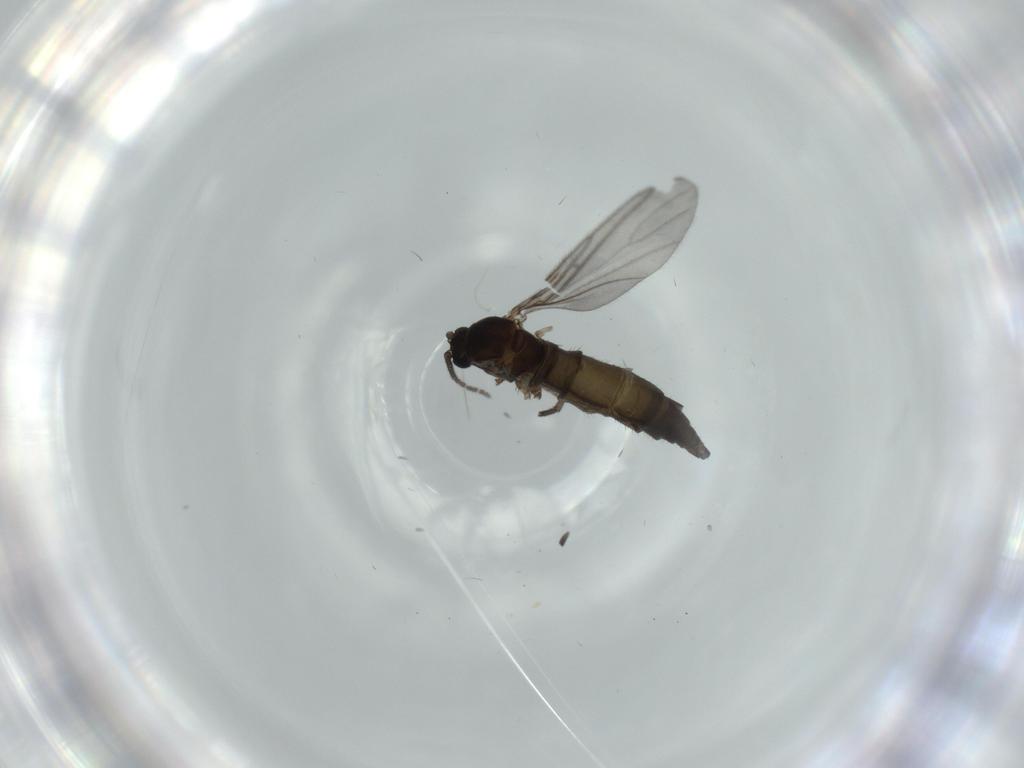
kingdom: Animalia
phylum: Arthropoda
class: Insecta
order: Diptera
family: Sciaridae
